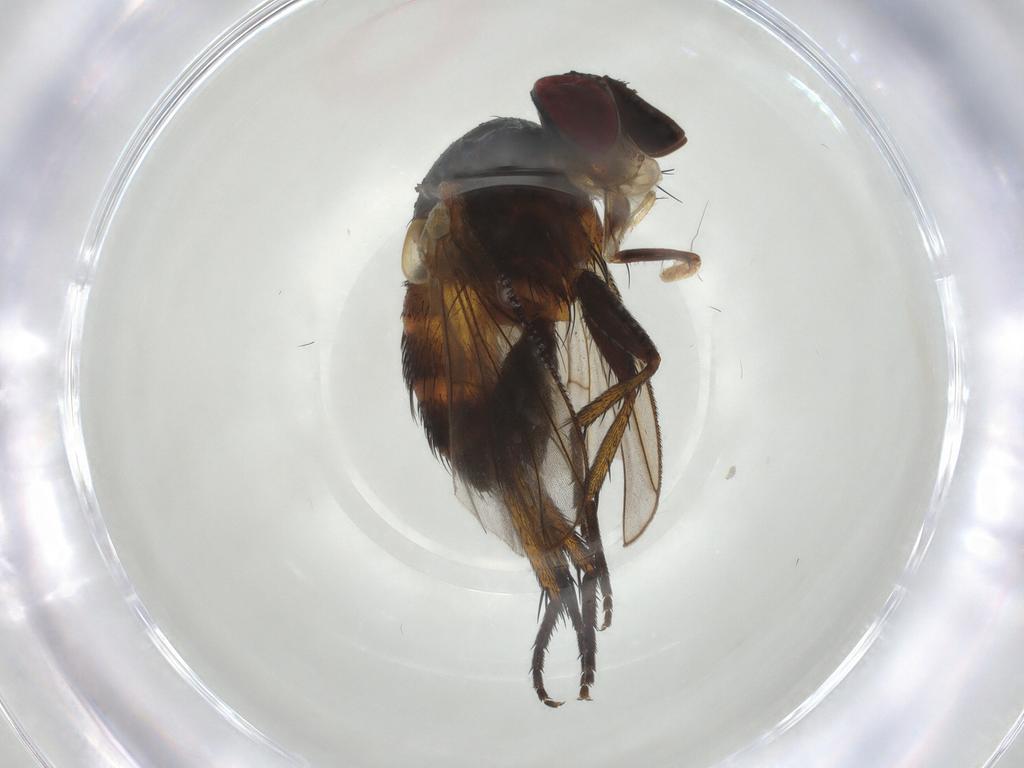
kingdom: Animalia
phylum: Arthropoda
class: Insecta
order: Diptera
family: Tachinidae
